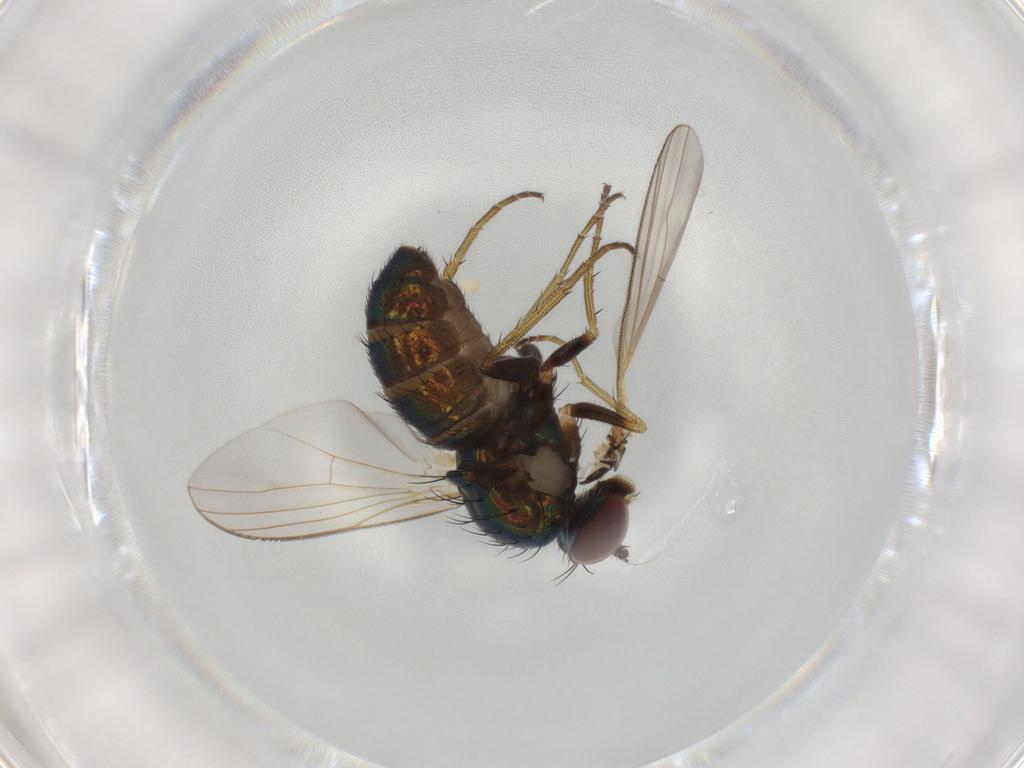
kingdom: Animalia
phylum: Arthropoda
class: Insecta
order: Diptera
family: Dolichopodidae
